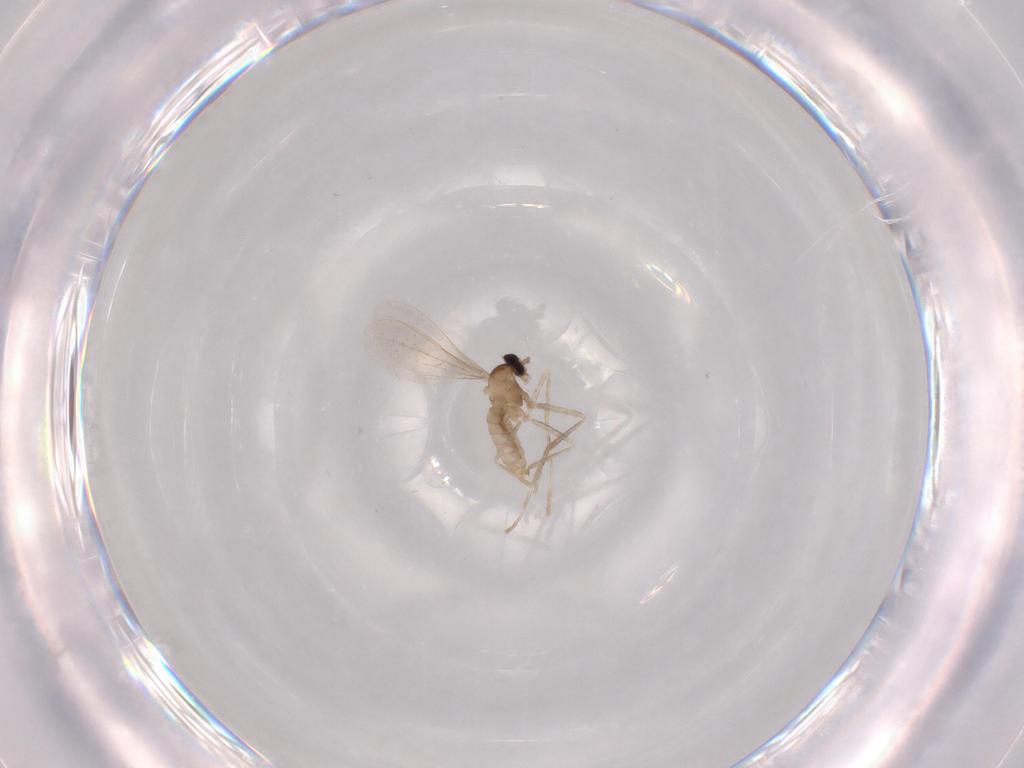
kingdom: Animalia
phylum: Arthropoda
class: Insecta
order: Diptera
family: Cecidomyiidae
